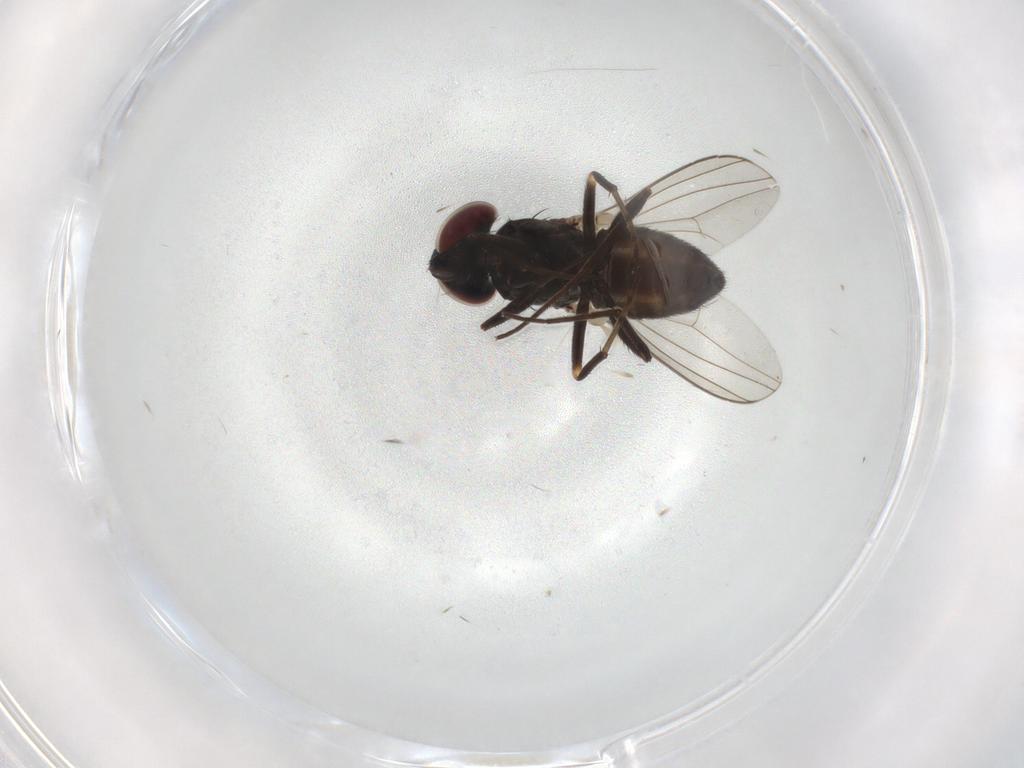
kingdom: Animalia
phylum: Arthropoda
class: Insecta
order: Diptera
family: Dolichopodidae
